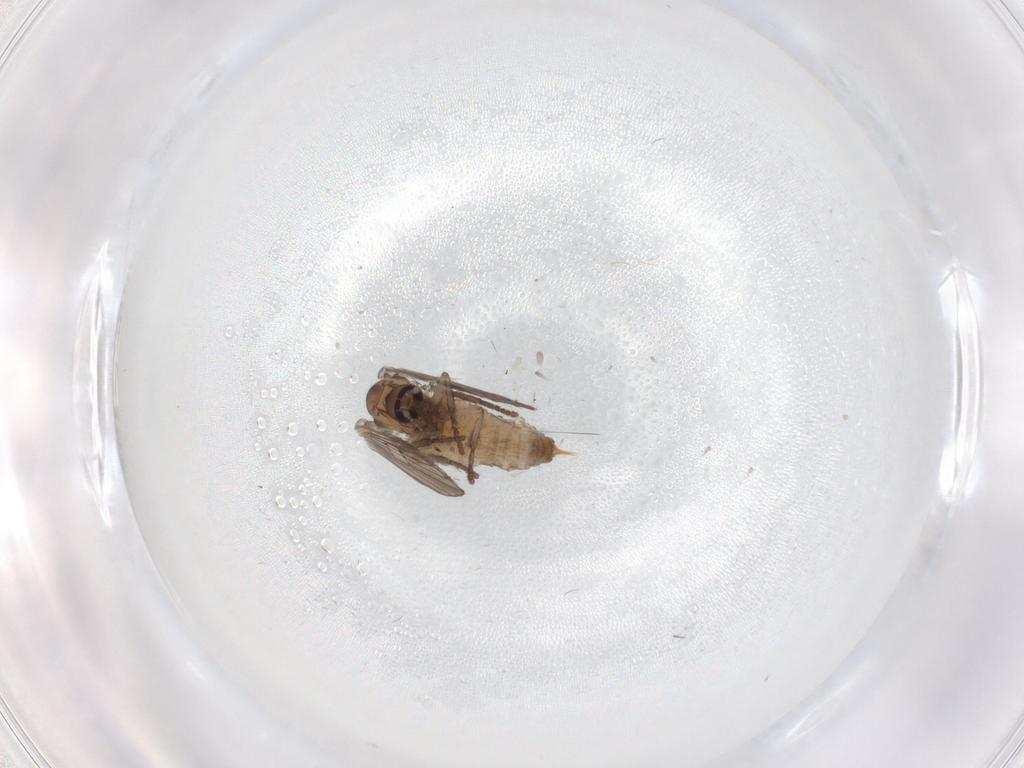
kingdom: Animalia
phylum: Arthropoda
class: Insecta
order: Diptera
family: Psychodidae
